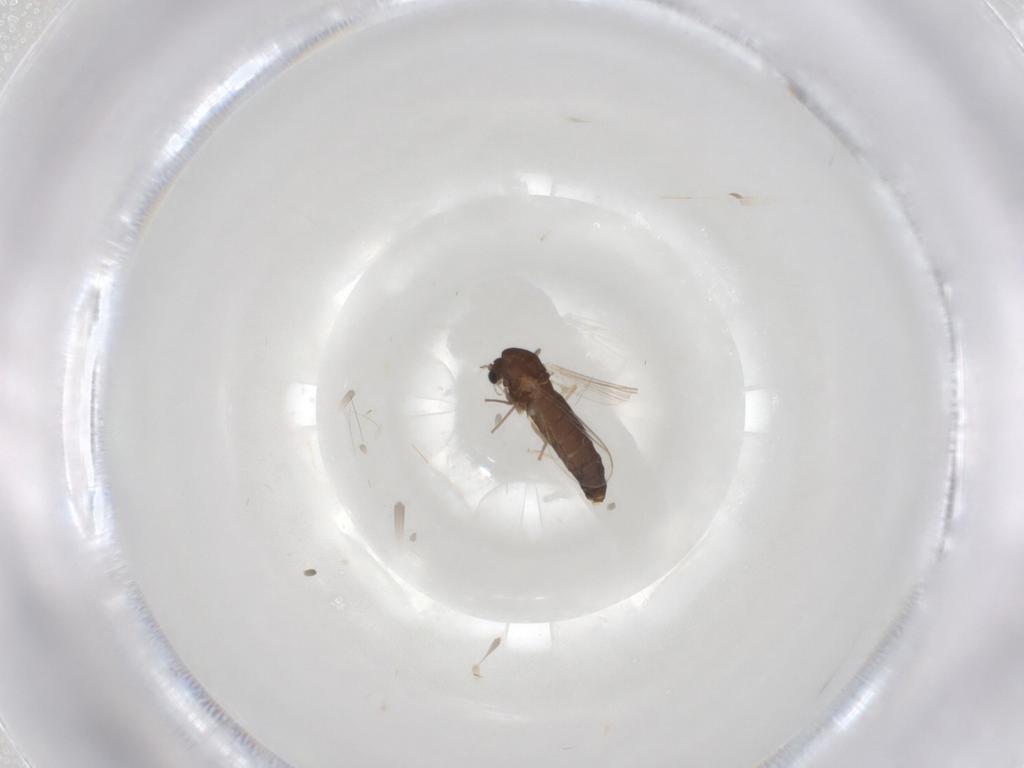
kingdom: Animalia
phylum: Arthropoda
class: Insecta
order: Diptera
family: Chironomidae
